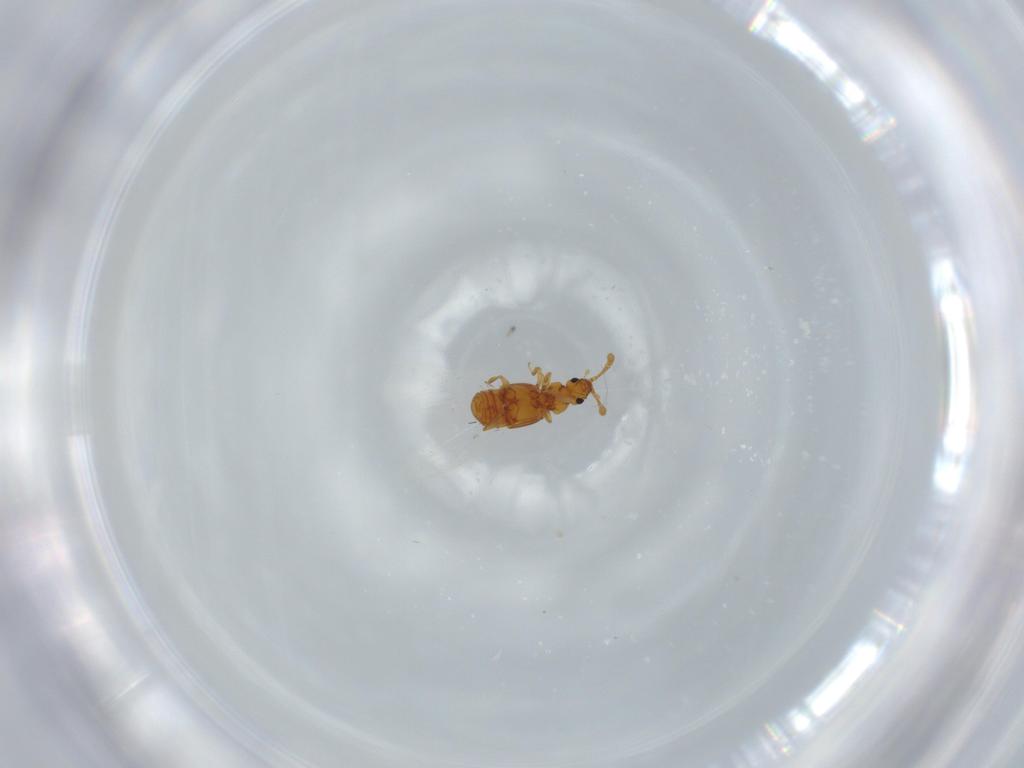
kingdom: Animalia
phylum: Arthropoda
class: Insecta
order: Coleoptera
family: Staphylinidae
